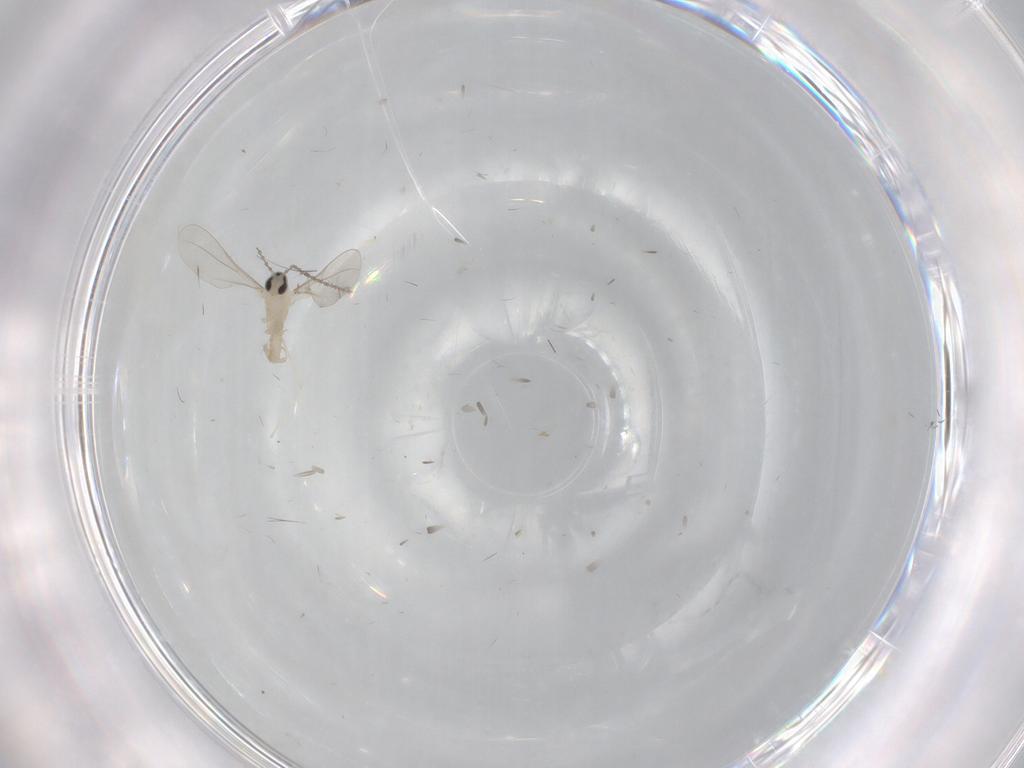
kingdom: Animalia
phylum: Arthropoda
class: Insecta
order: Diptera
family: Cecidomyiidae
